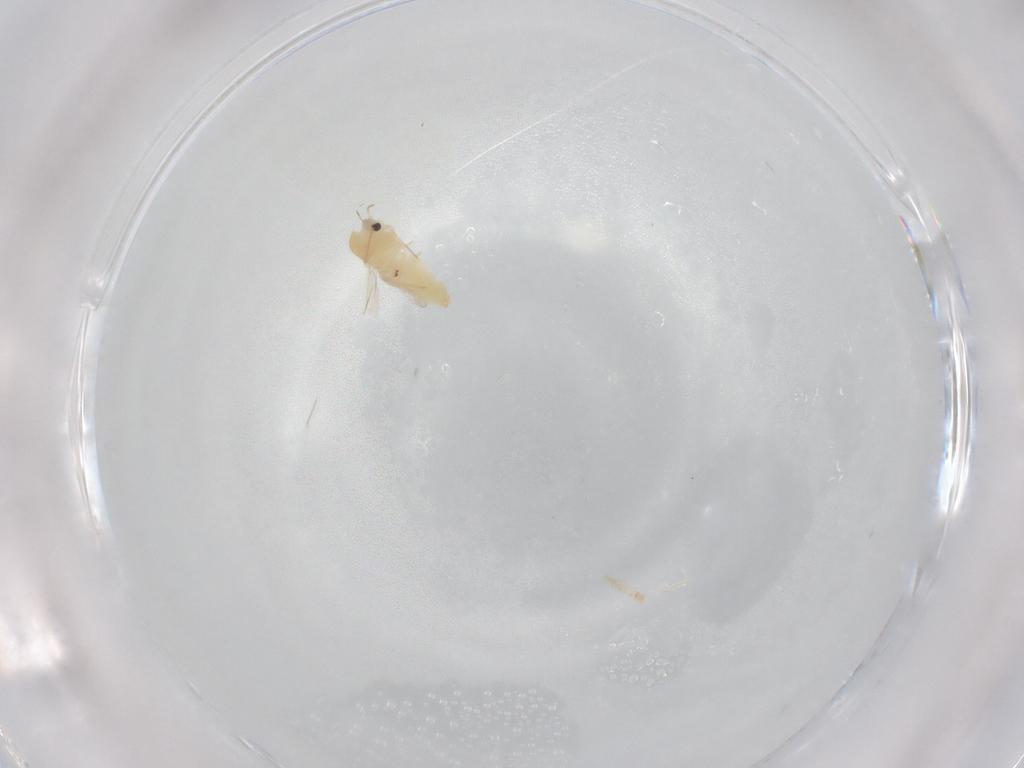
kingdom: Animalia
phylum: Arthropoda
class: Insecta
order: Diptera
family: Chironomidae
